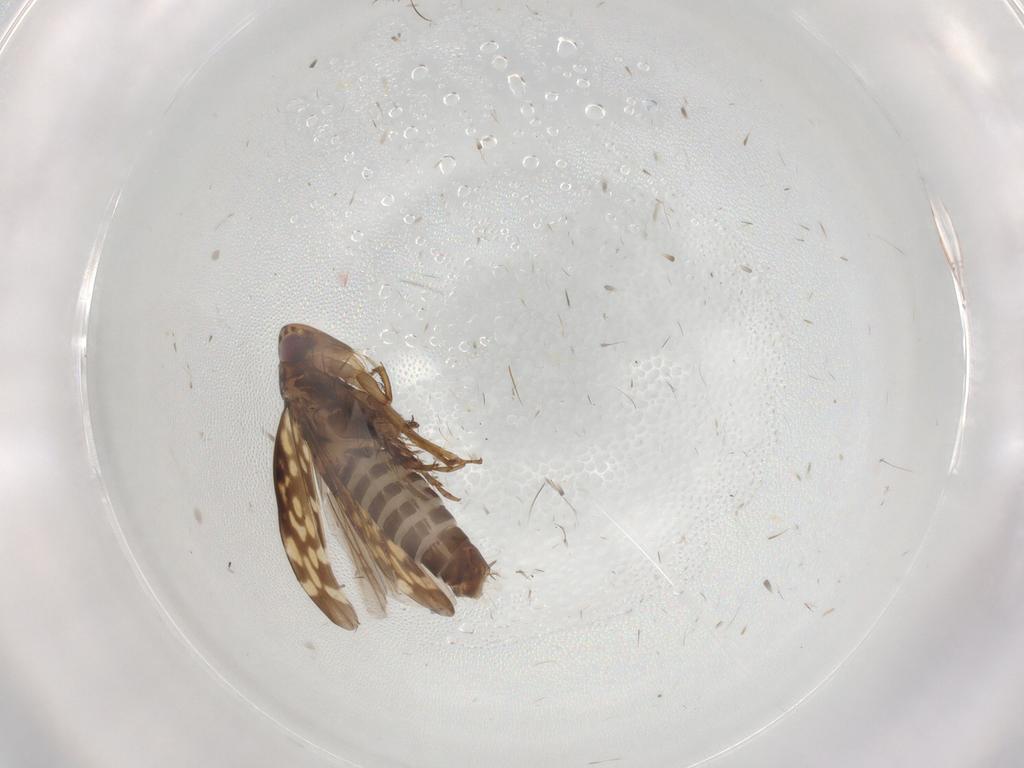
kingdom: Animalia
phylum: Arthropoda
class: Insecta
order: Hemiptera
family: Cicadellidae
